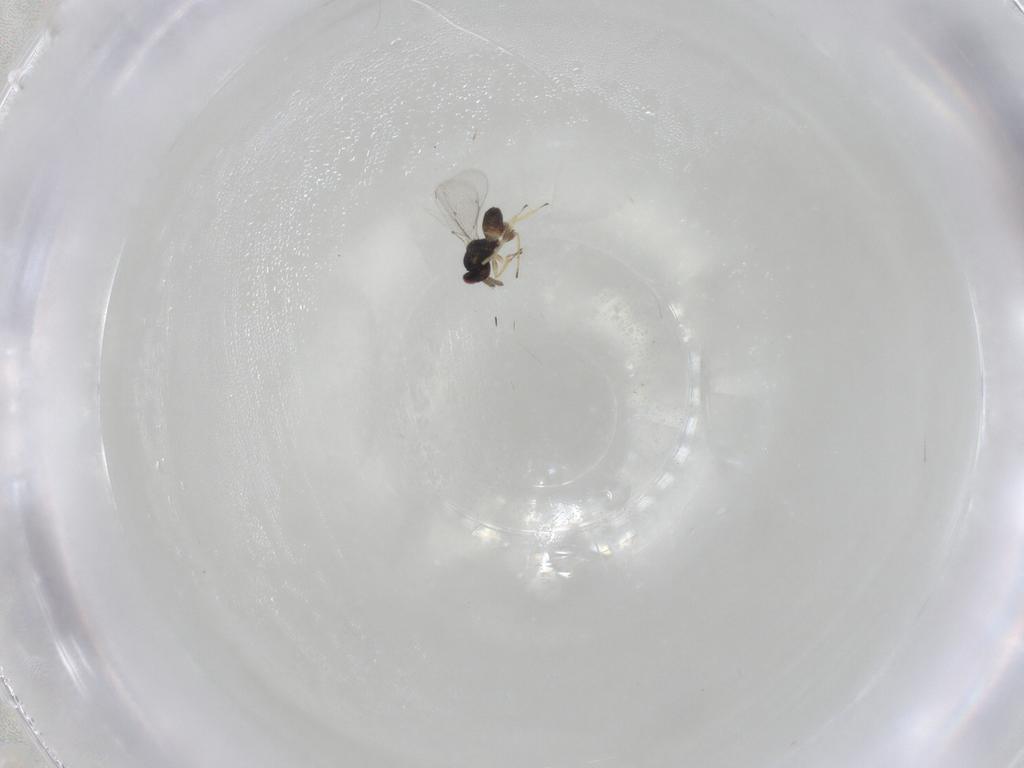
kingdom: Animalia
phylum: Arthropoda
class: Insecta
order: Hymenoptera
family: Eulophidae
